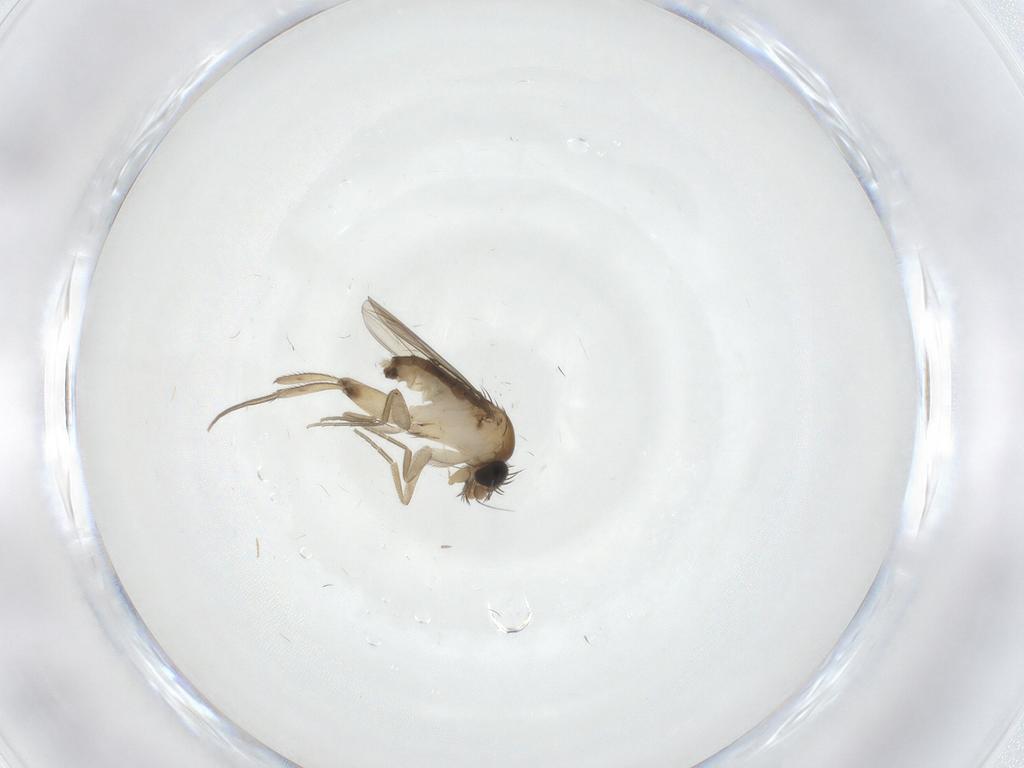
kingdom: Animalia
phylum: Arthropoda
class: Insecta
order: Diptera
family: Phoridae
